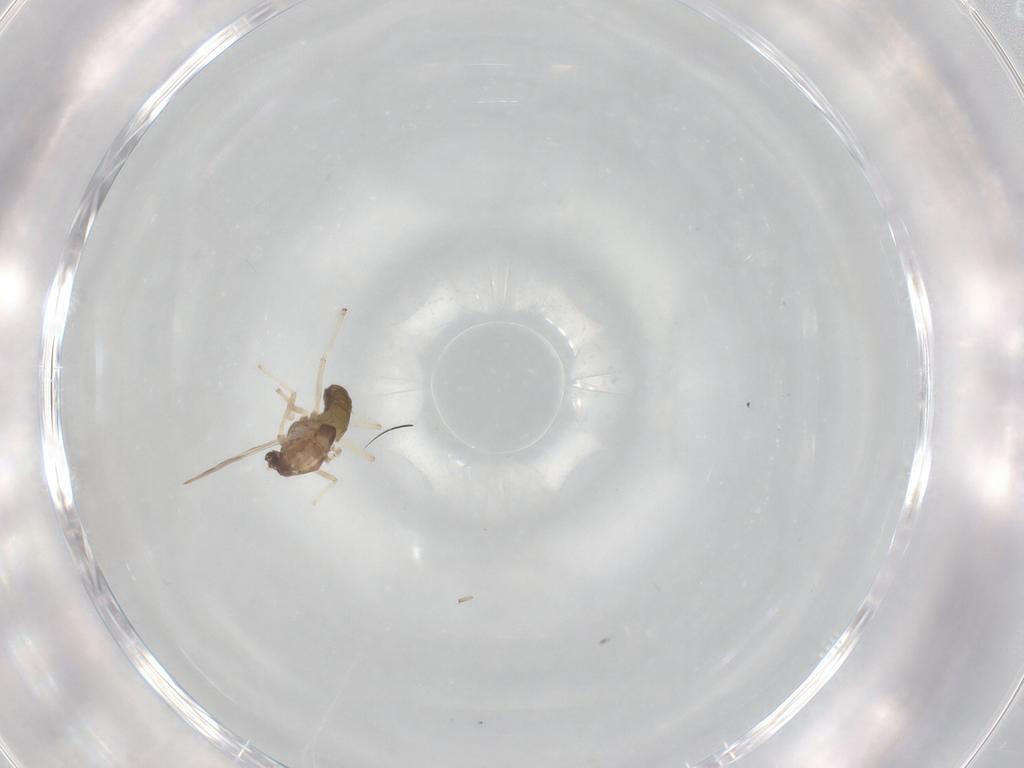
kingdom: Animalia
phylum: Arthropoda
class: Insecta
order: Diptera
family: Chironomidae
